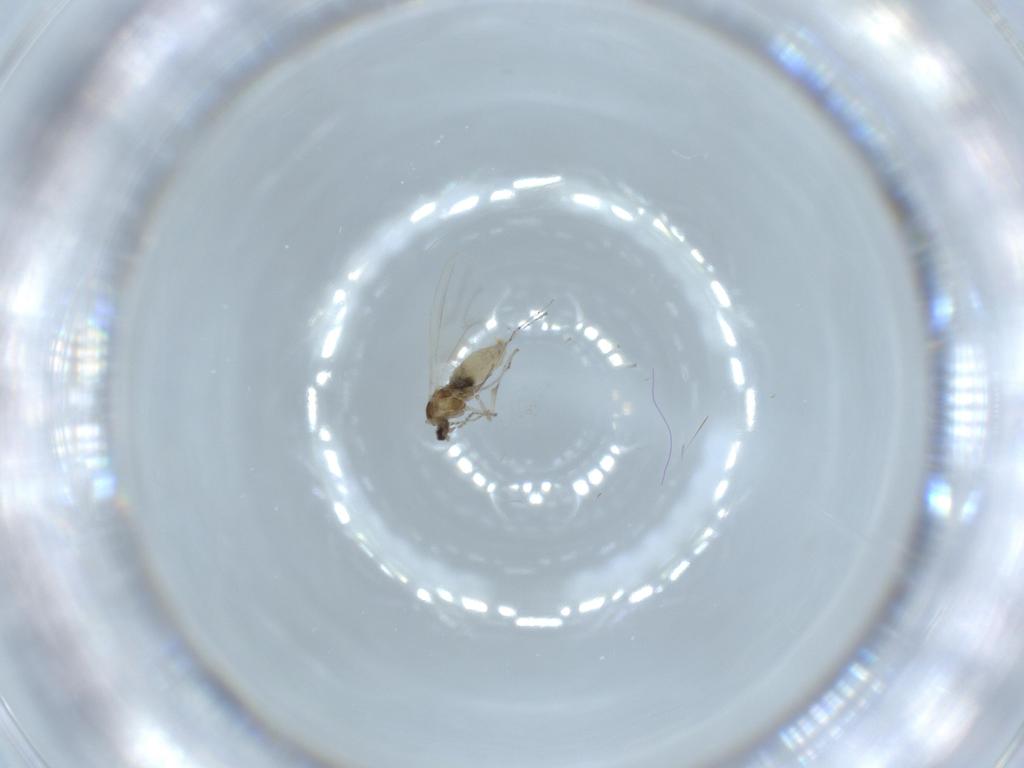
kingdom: Animalia
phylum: Arthropoda
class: Insecta
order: Diptera
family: Cecidomyiidae
